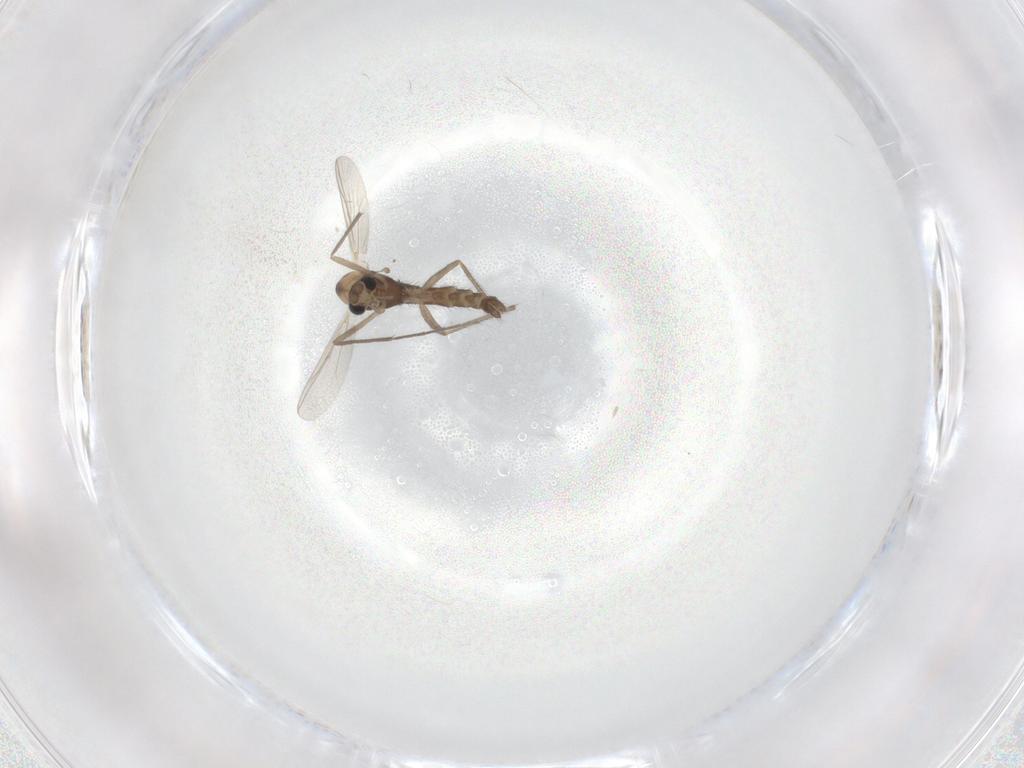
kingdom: Animalia
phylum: Arthropoda
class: Insecta
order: Diptera
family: Chironomidae
